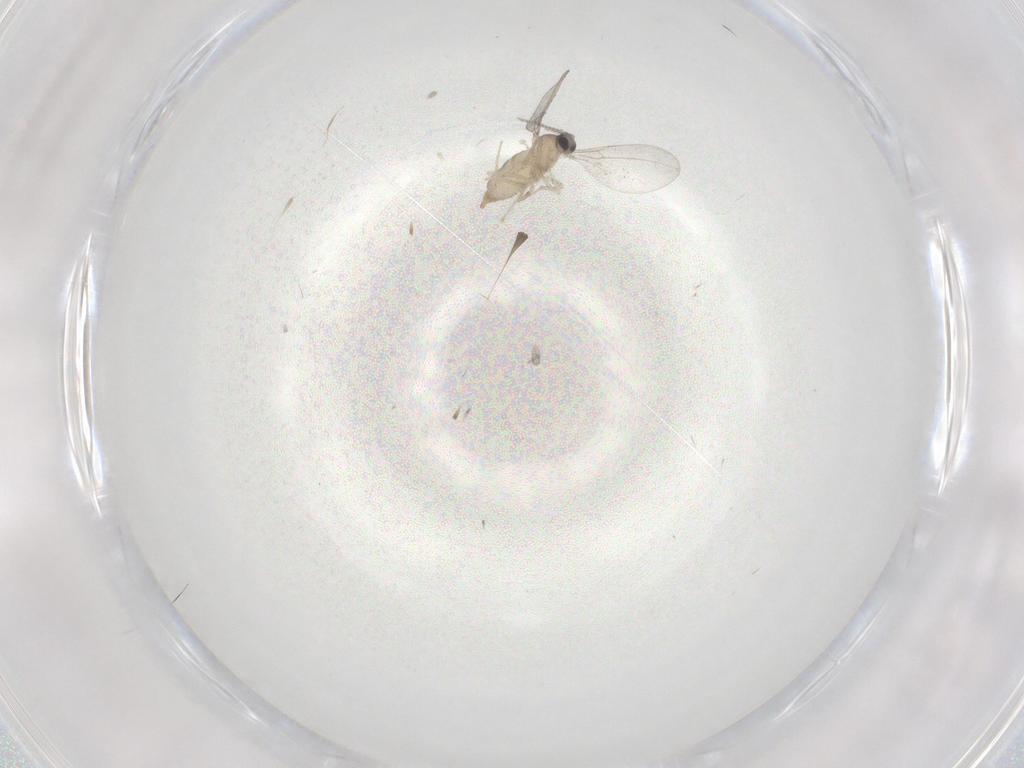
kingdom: Animalia
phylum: Arthropoda
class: Insecta
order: Diptera
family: Cecidomyiidae
